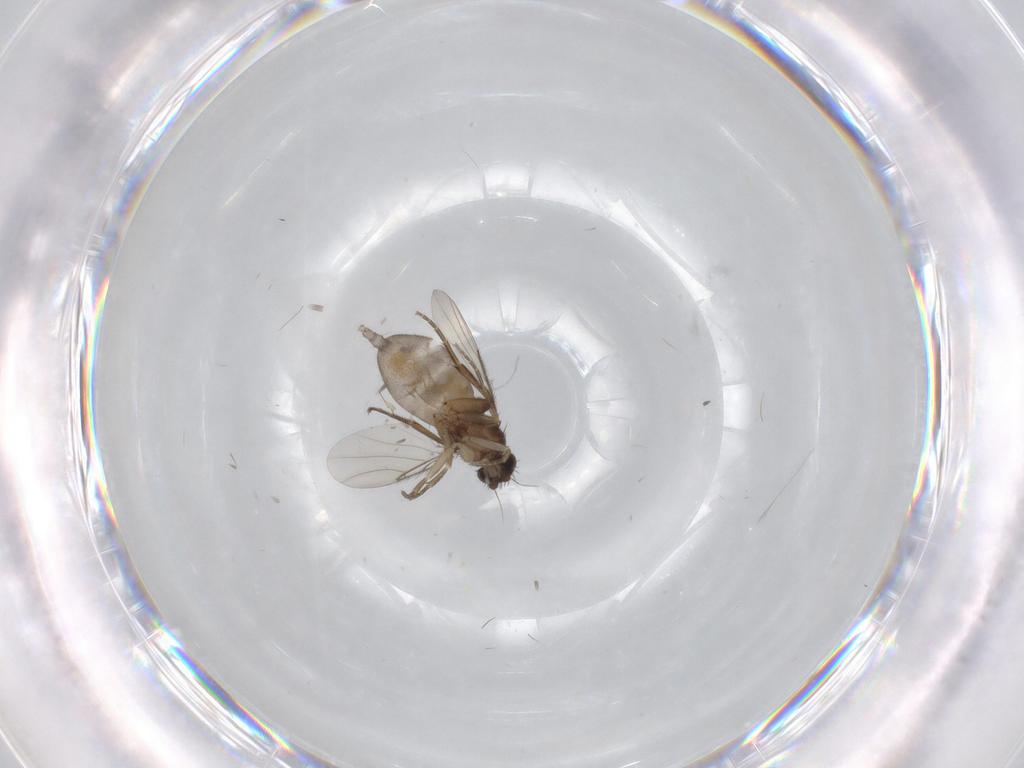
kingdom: Animalia
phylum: Arthropoda
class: Insecta
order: Diptera
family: Phoridae
